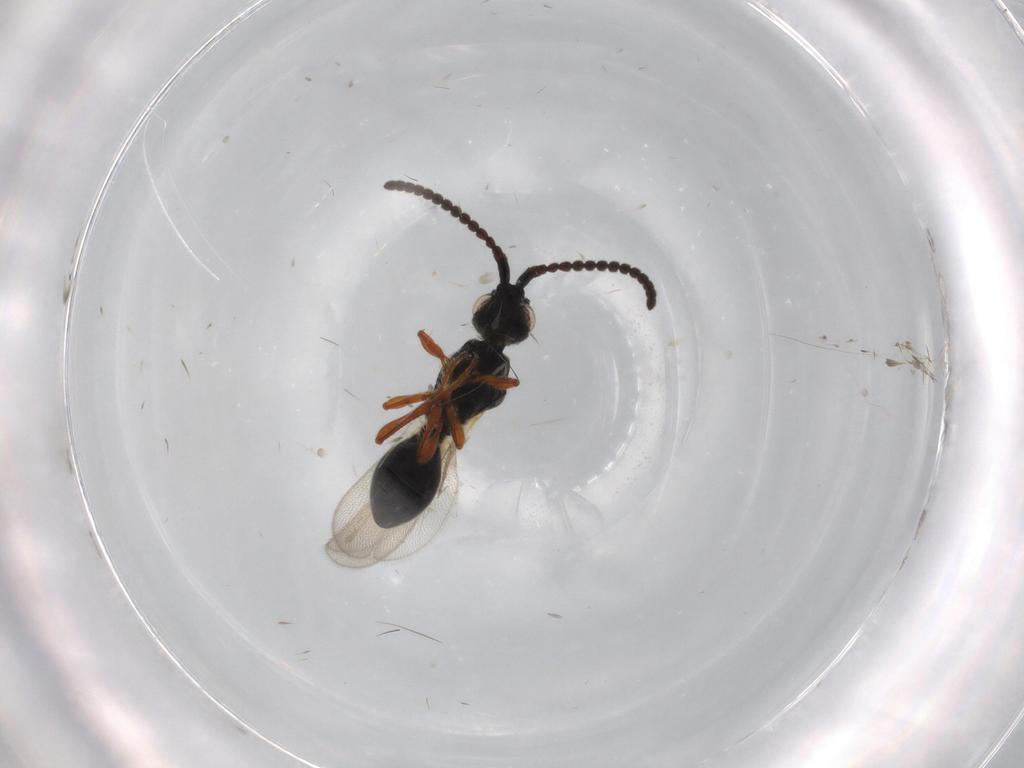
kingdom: Animalia
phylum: Arthropoda
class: Insecta
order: Hymenoptera
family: Diapriidae
